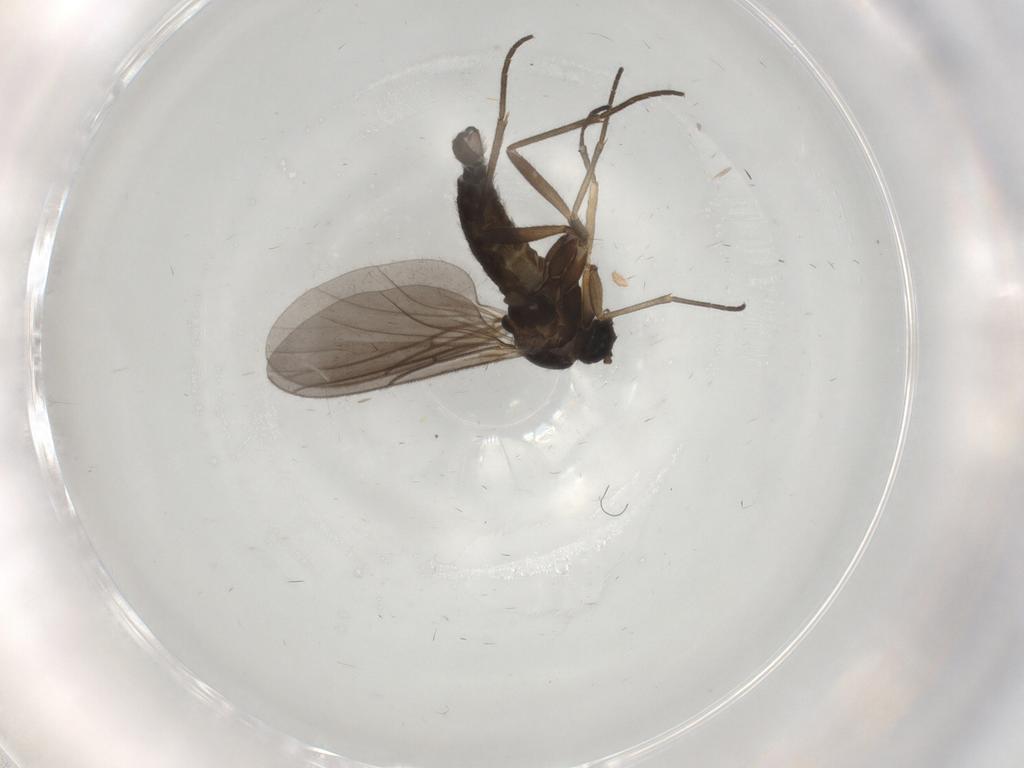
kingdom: Animalia
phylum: Arthropoda
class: Insecta
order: Diptera
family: Sciaridae
